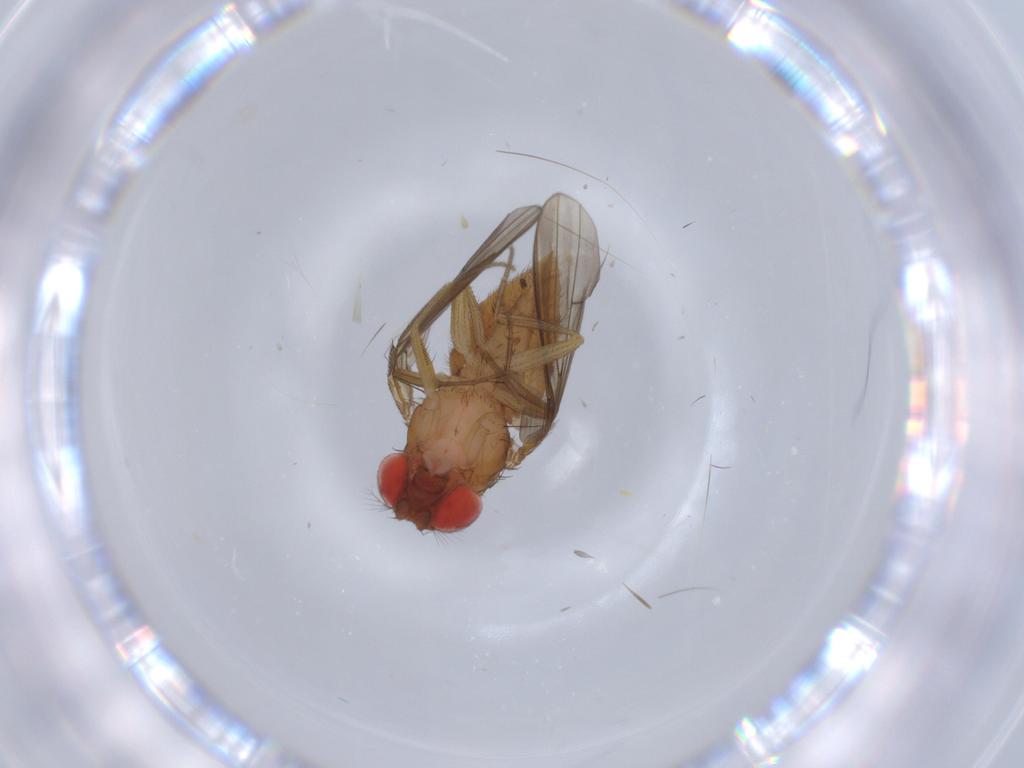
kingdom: Animalia
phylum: Arthropoda
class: Insecta
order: Diptera
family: Drosophilidae
